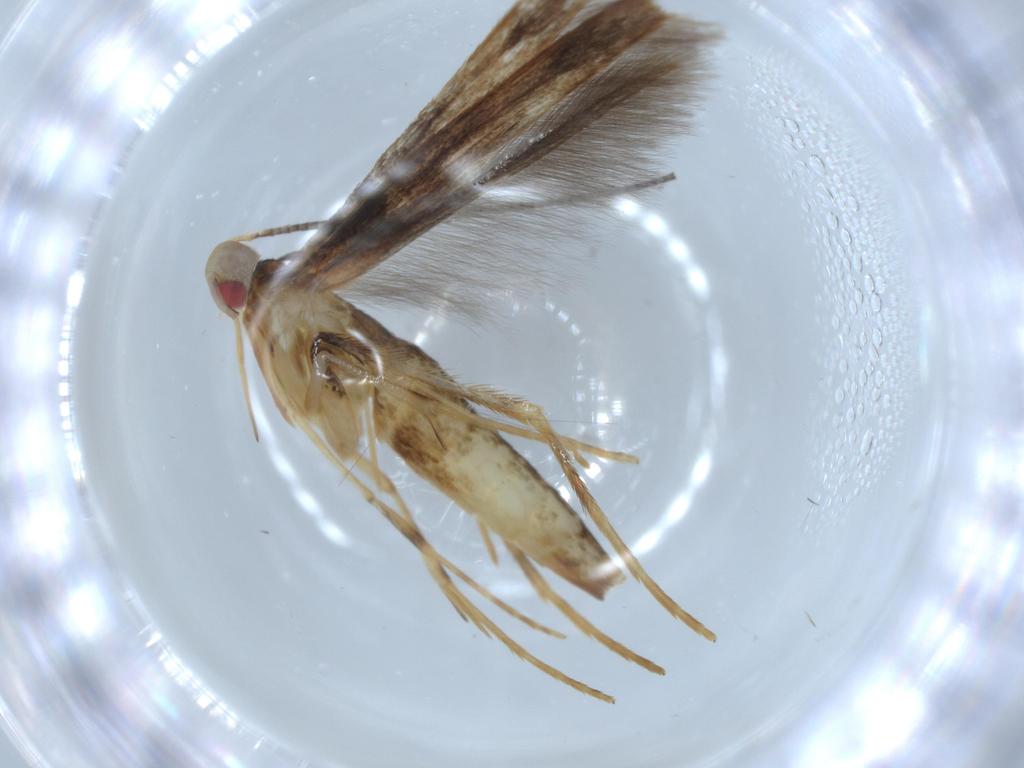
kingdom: Animalia
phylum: Arthropoda
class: Insecta
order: Lepidoptera
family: Gracillariidae
